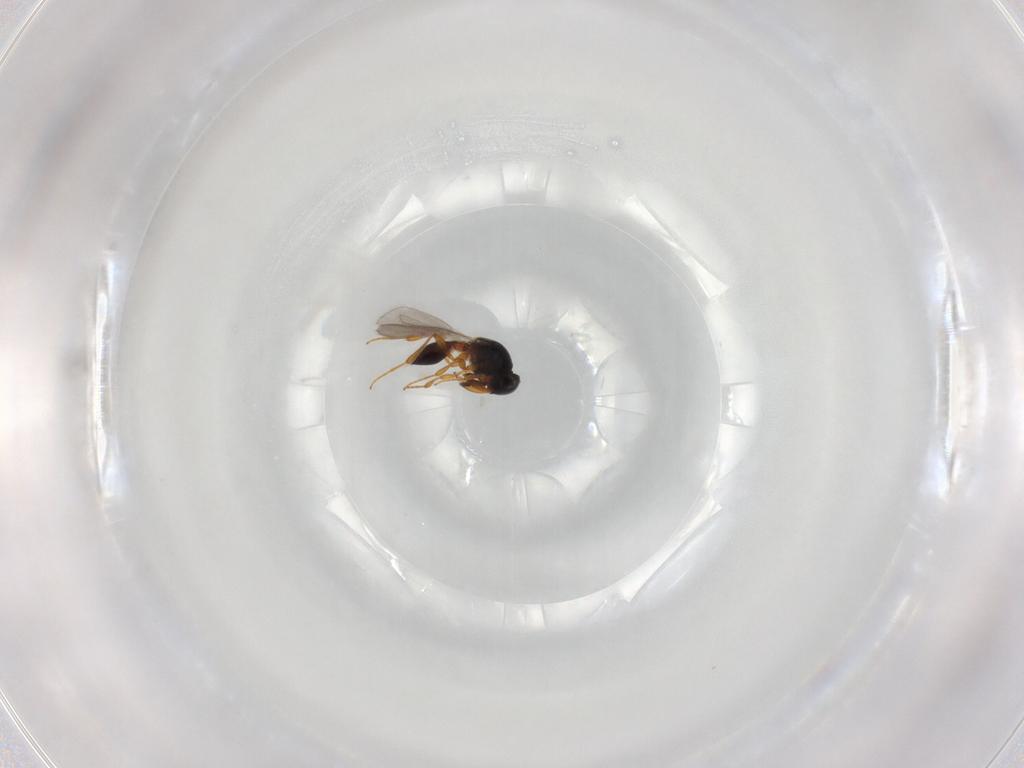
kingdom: Animalia
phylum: Arthropoda
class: Insecta
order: Hymenoptera
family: Platygastridae
